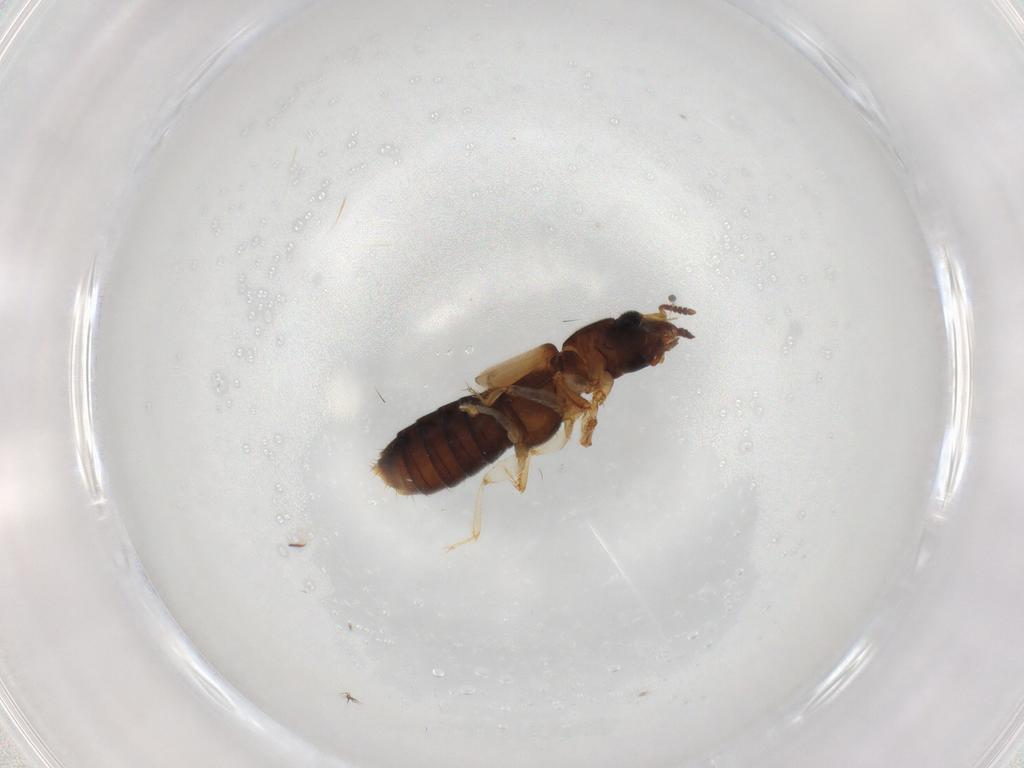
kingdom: Animalia
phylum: Arthropoda
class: Insecta
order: Coleoptera
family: Staphylinidae
